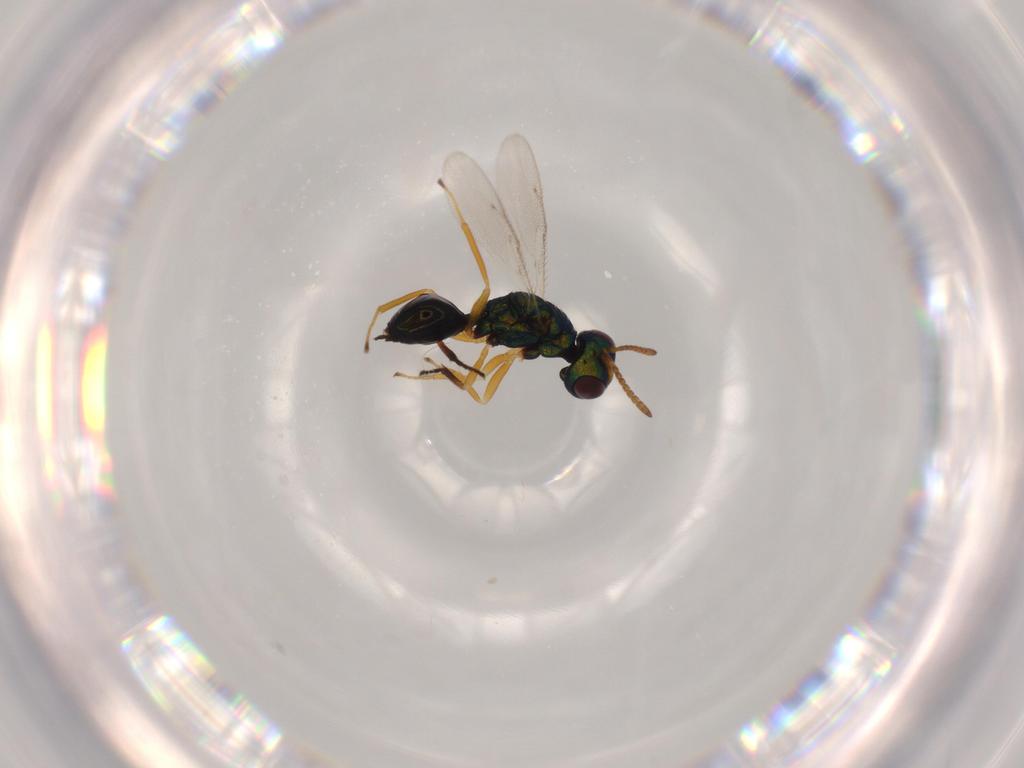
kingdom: Animalia
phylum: Arthropoda
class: Insecta
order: Hymenoptera
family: Pteromalidae
